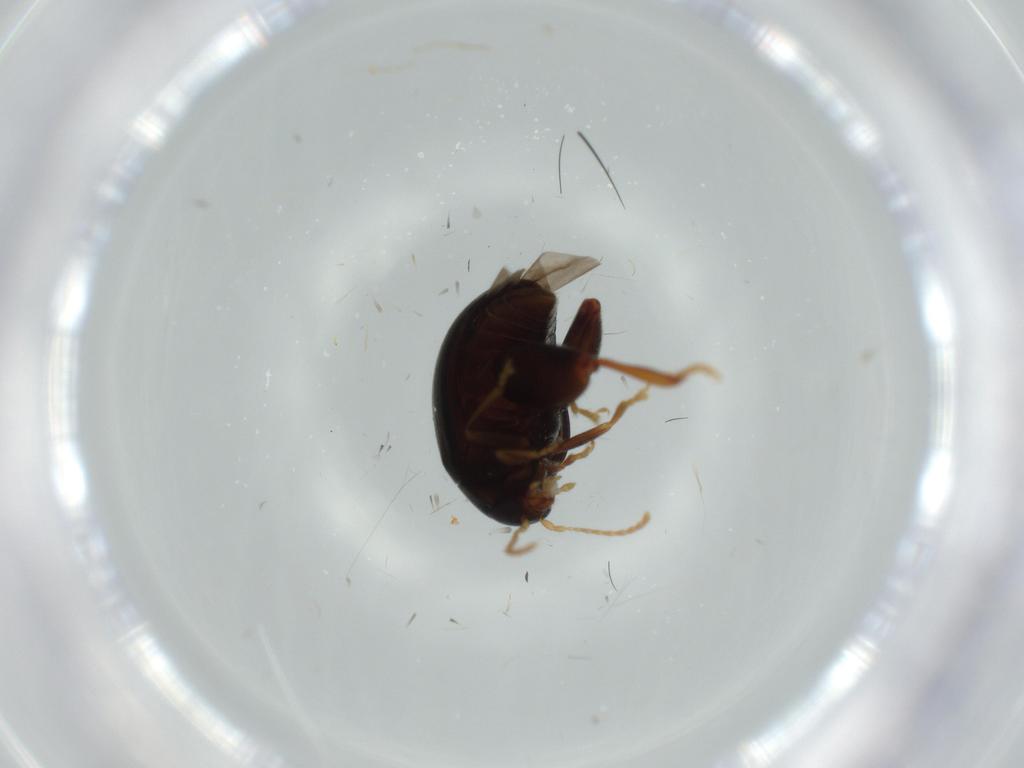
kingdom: Animalia
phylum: Arthropoda
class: Insecta
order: Coleoptera
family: Chrysomelidae
